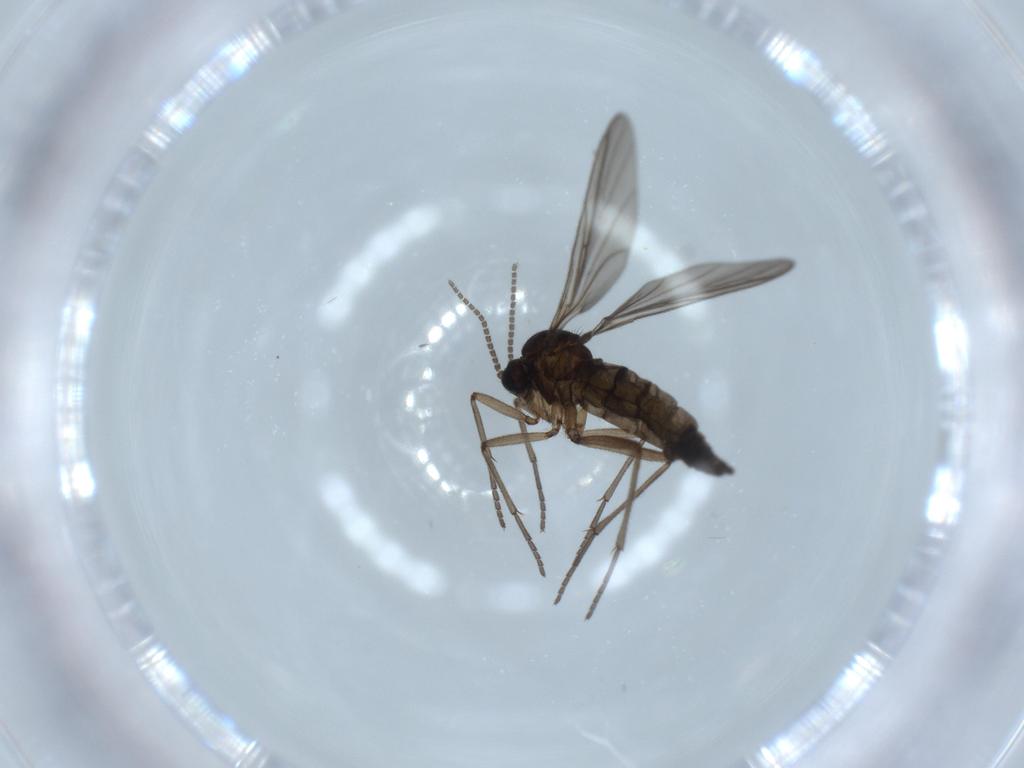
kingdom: Animalia
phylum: Arthropoda
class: Insecta
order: Diptera
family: Sciaridae
